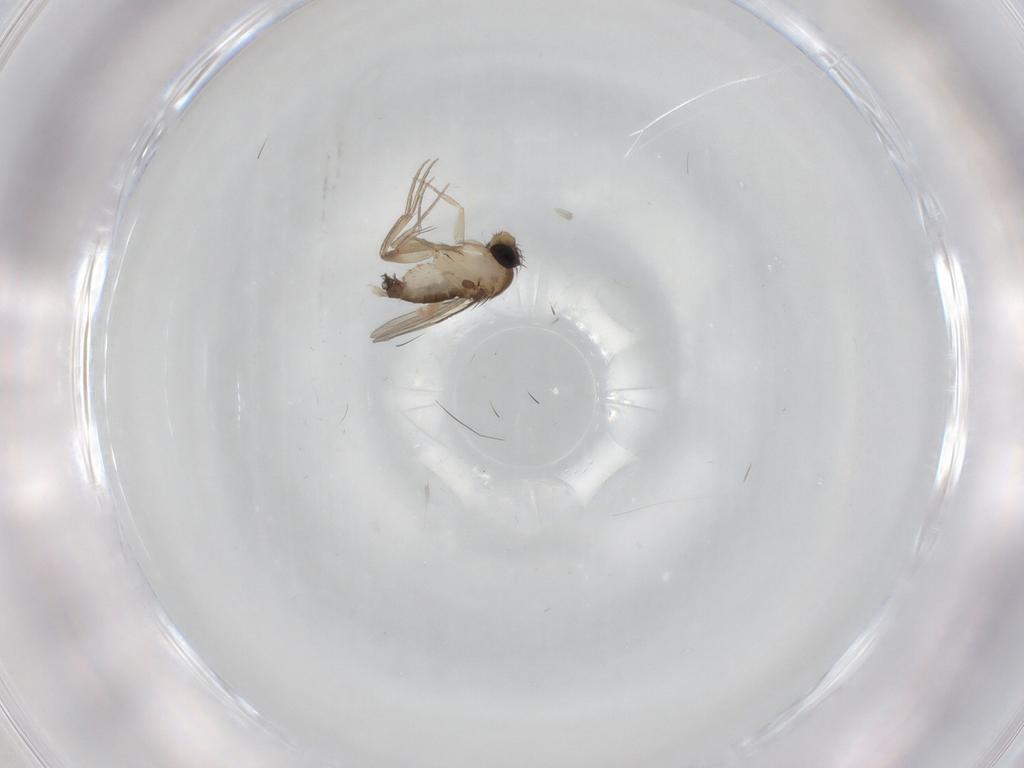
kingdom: Animalia
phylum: Arthropoda
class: Insecta
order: Diptera
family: Phoridae
